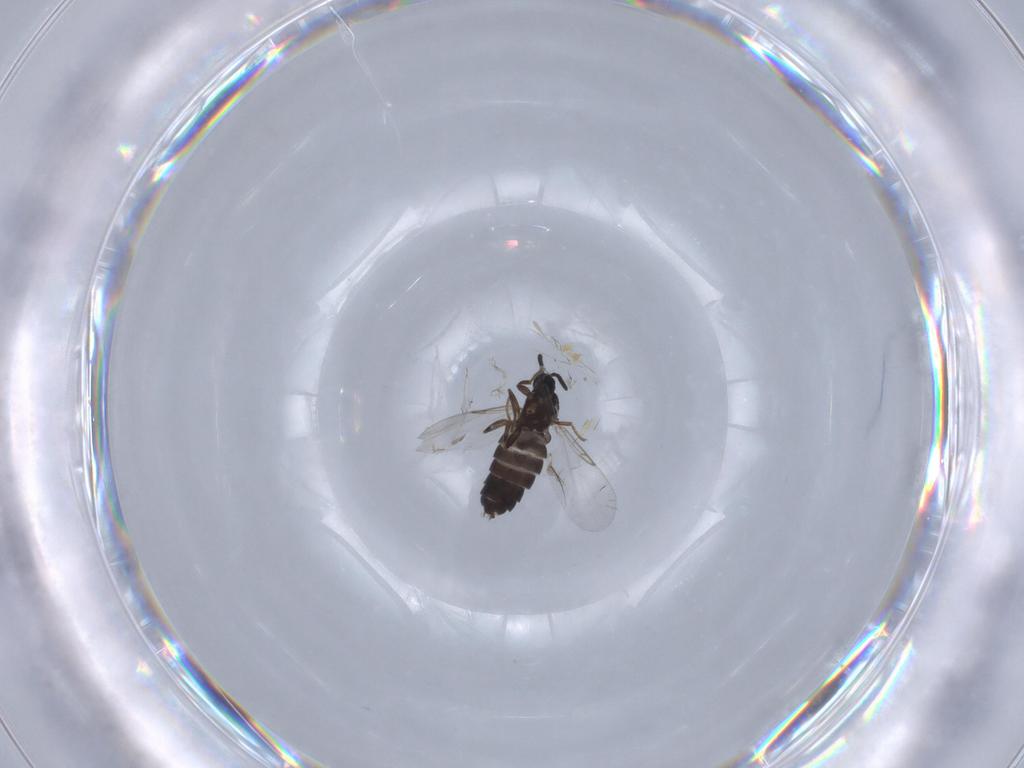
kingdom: Animalia
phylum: Arthropoda
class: Insecta
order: Diptera
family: Scatopsidae
